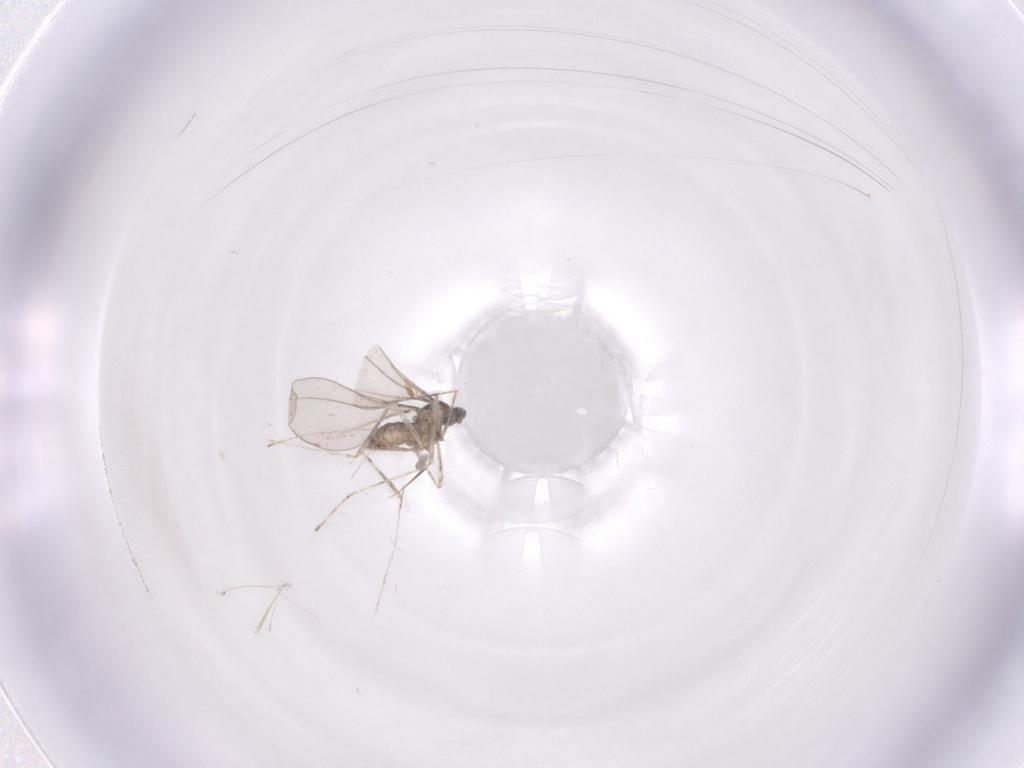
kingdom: Animalia
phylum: Arthropoda
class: Insecta
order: Diptera
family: Cecidomyiidae
